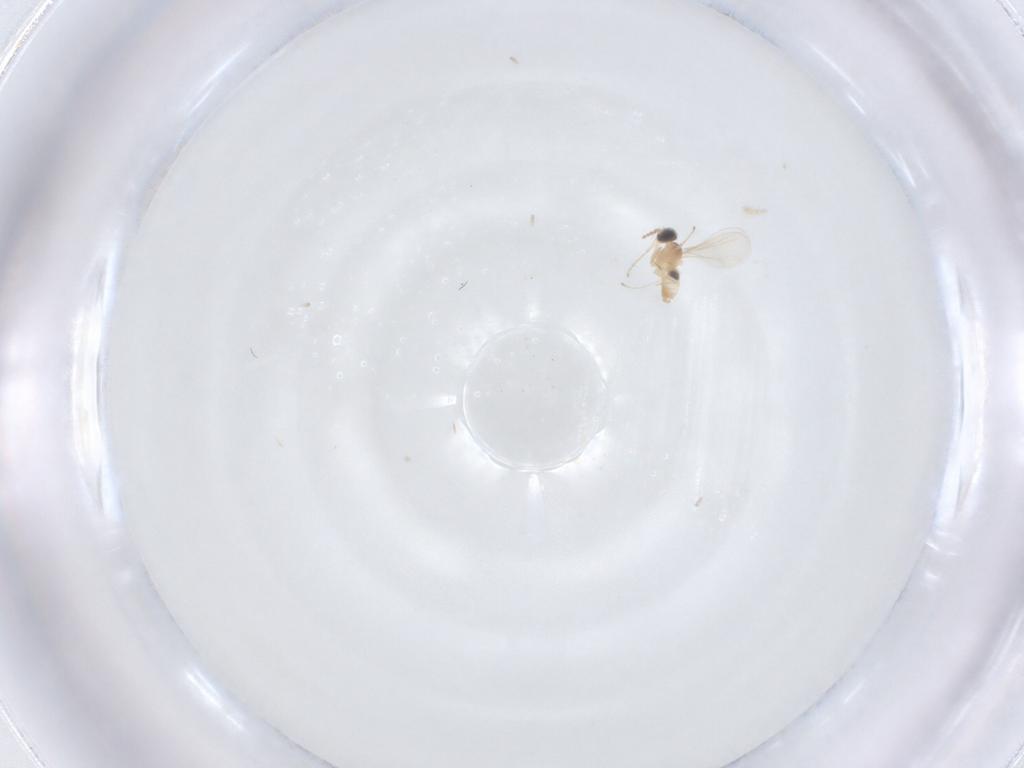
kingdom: Animalia
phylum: Arthropoda
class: Insecta
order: Diptera
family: Cecidomyiidae
